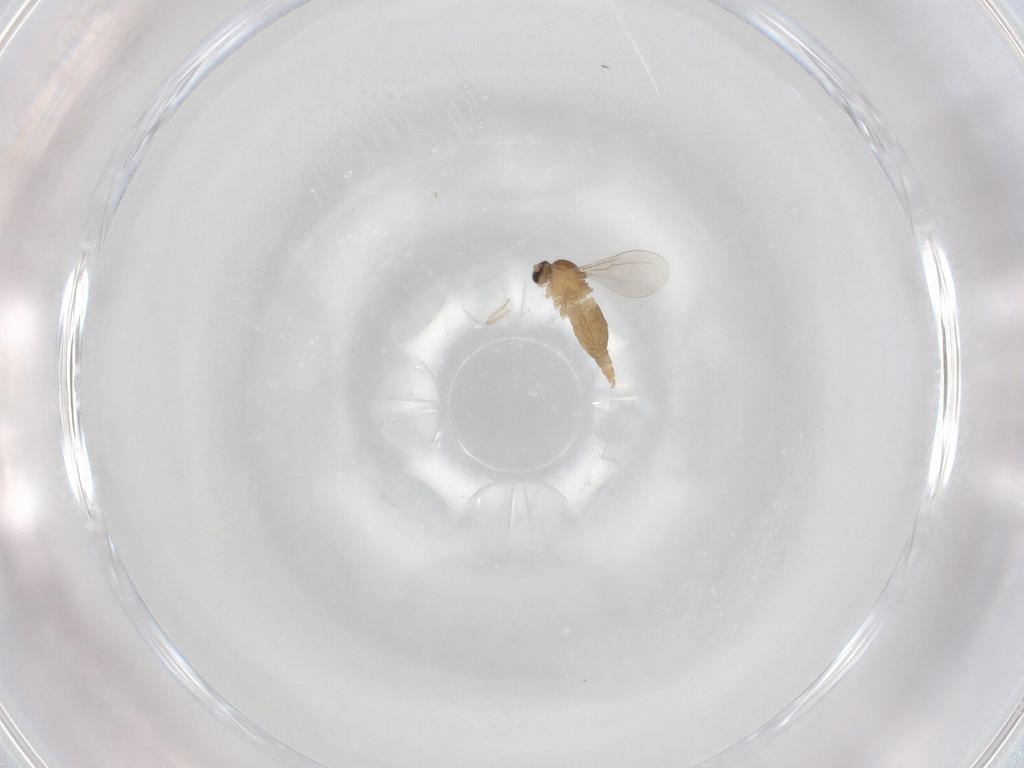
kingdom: Animalia
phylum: Arthropoda
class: Insecta
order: Diptera
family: Cecidomyiidae
